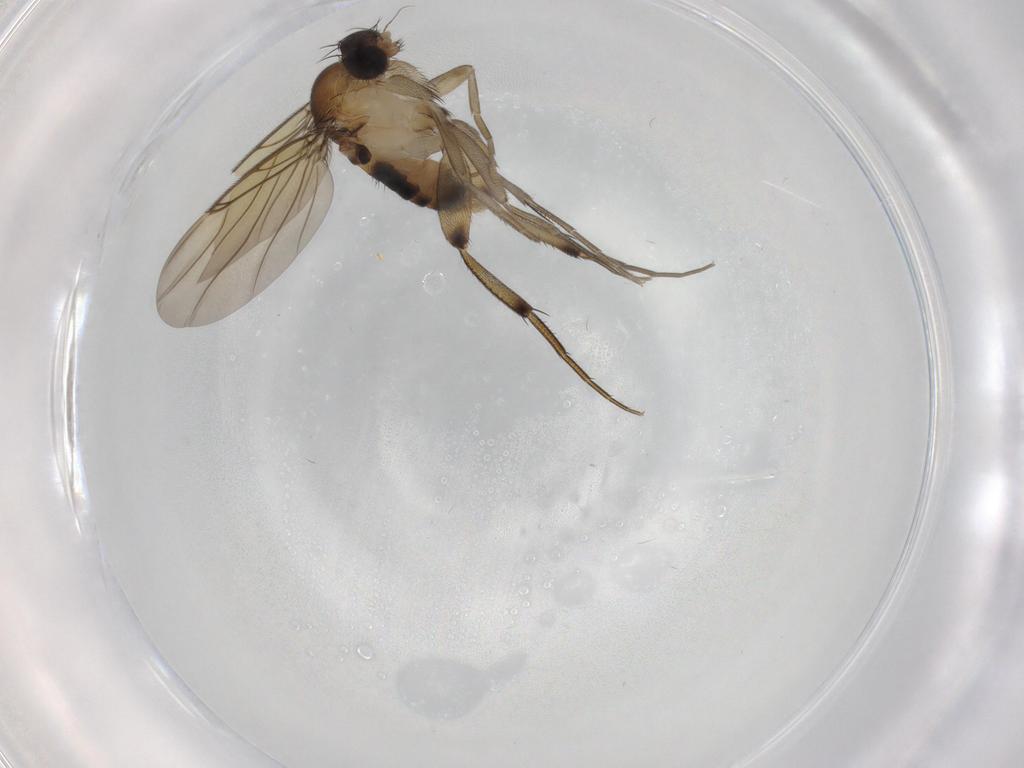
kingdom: Animalia
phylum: Arthropoda
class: Insecta
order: Diptera
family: Phoridae
